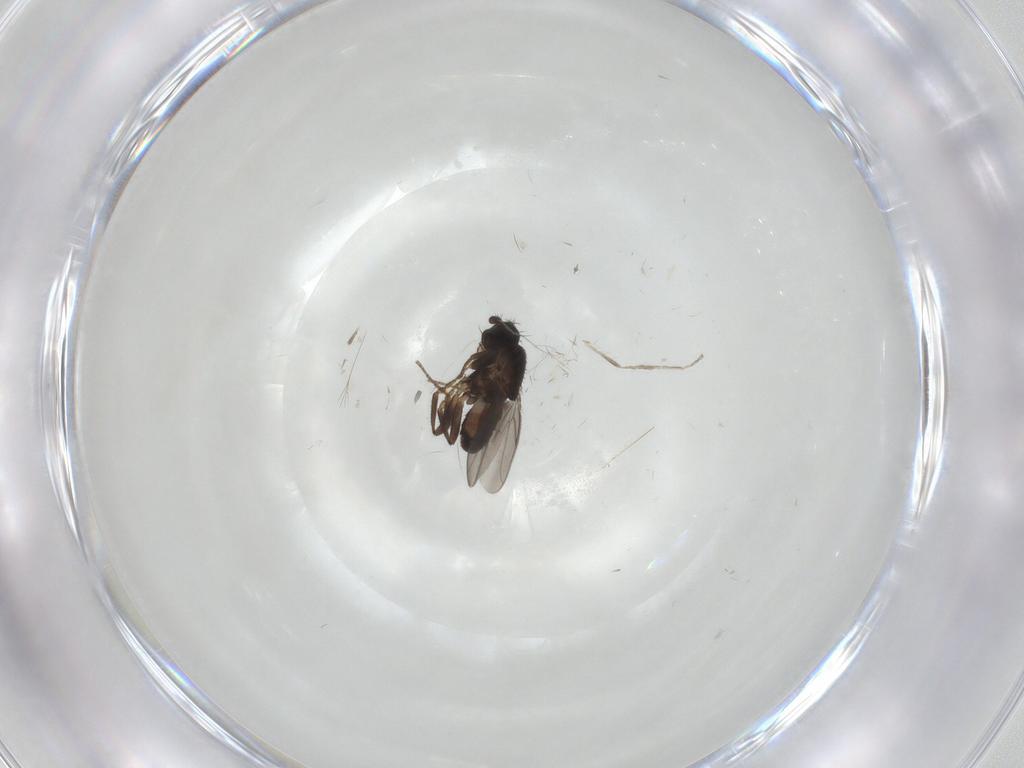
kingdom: Animalia
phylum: Arthropoda
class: Insecta
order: Diptera
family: Cecidomyiidae
